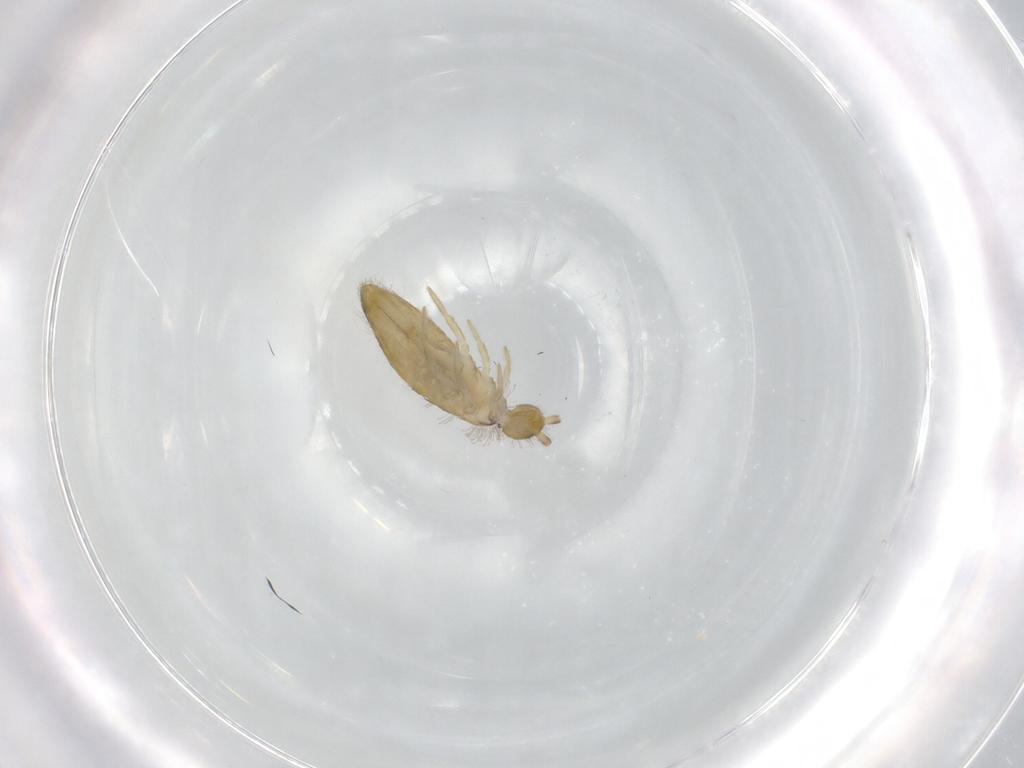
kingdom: Animalia
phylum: Arthropoda
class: Collembola
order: Entomobryomorpha
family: Entomobryidae
